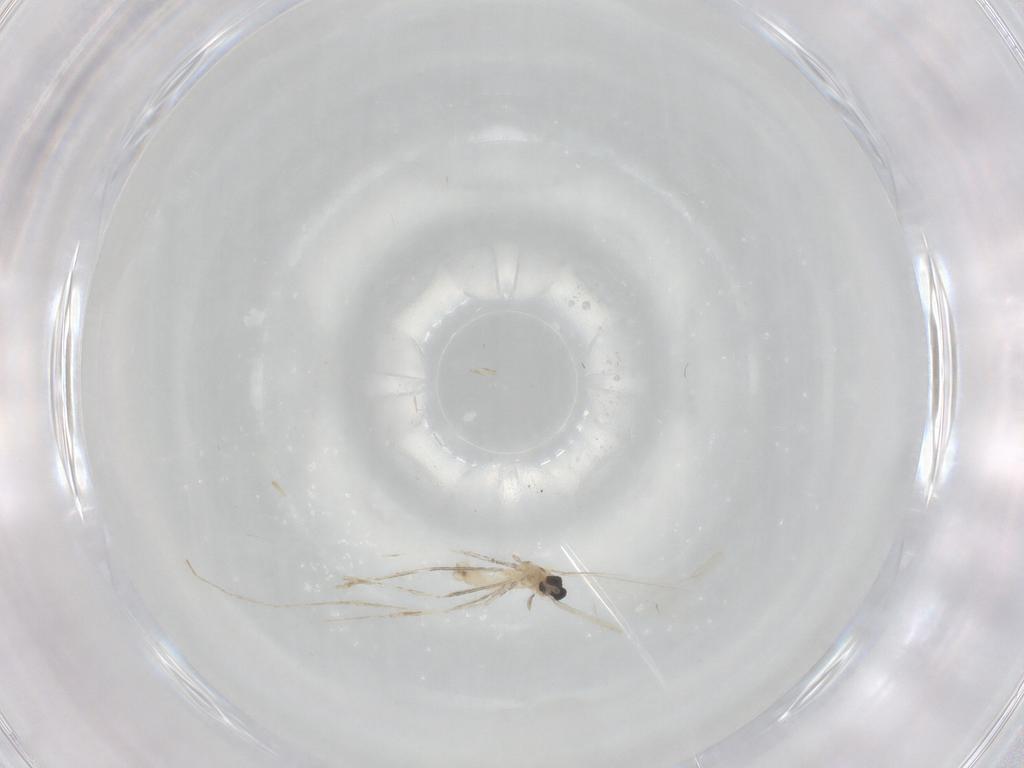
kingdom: Animalia
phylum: Arthropoda
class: Insecta
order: Diptera
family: Cecidomyiidae
